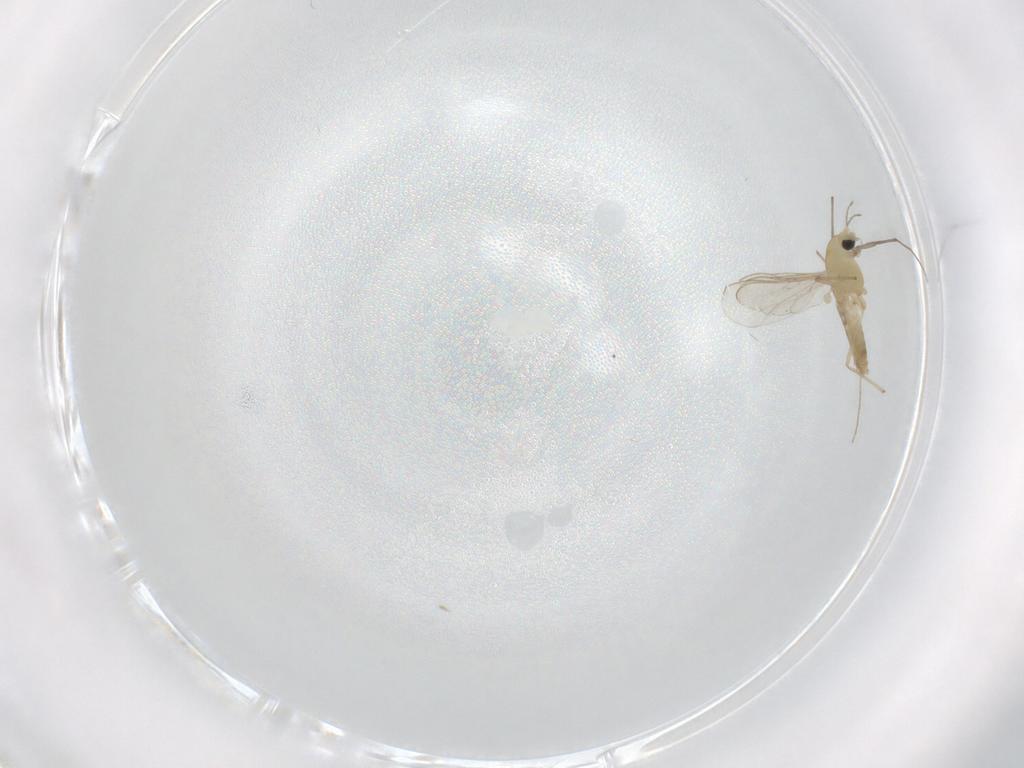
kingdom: Animalia
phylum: Arthropoda
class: Insecta
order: Diptera
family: Chironomidae
